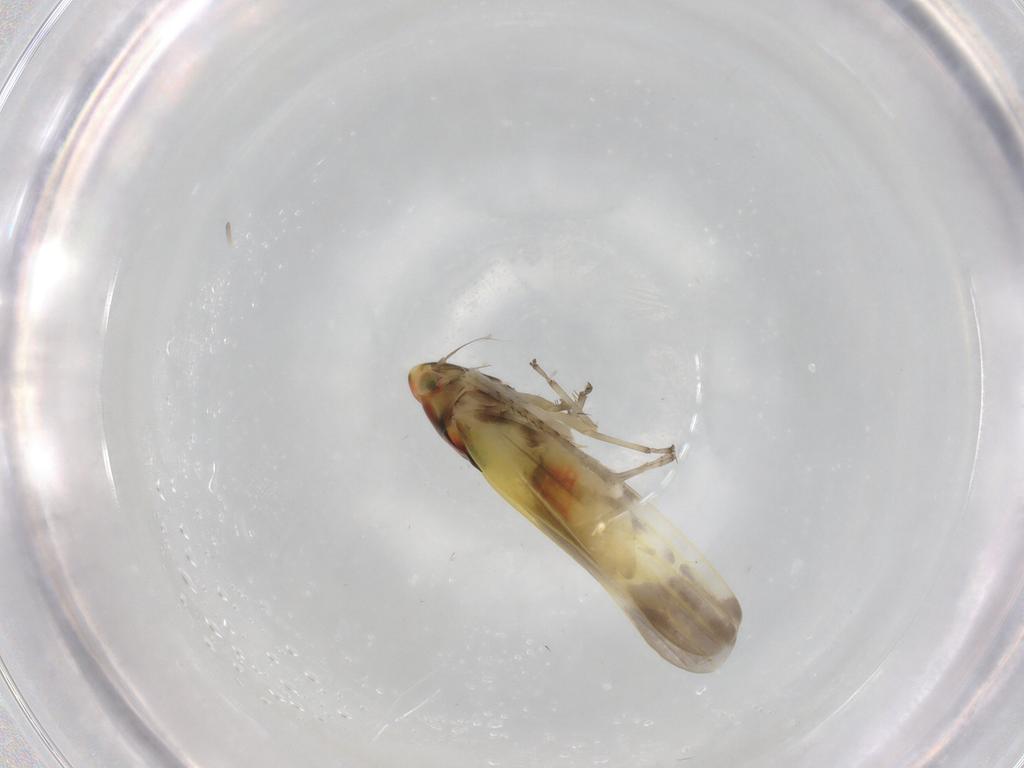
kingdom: Animalia
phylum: Arthropoda
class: Insecta
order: Hemiptera
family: Cicadellidae
